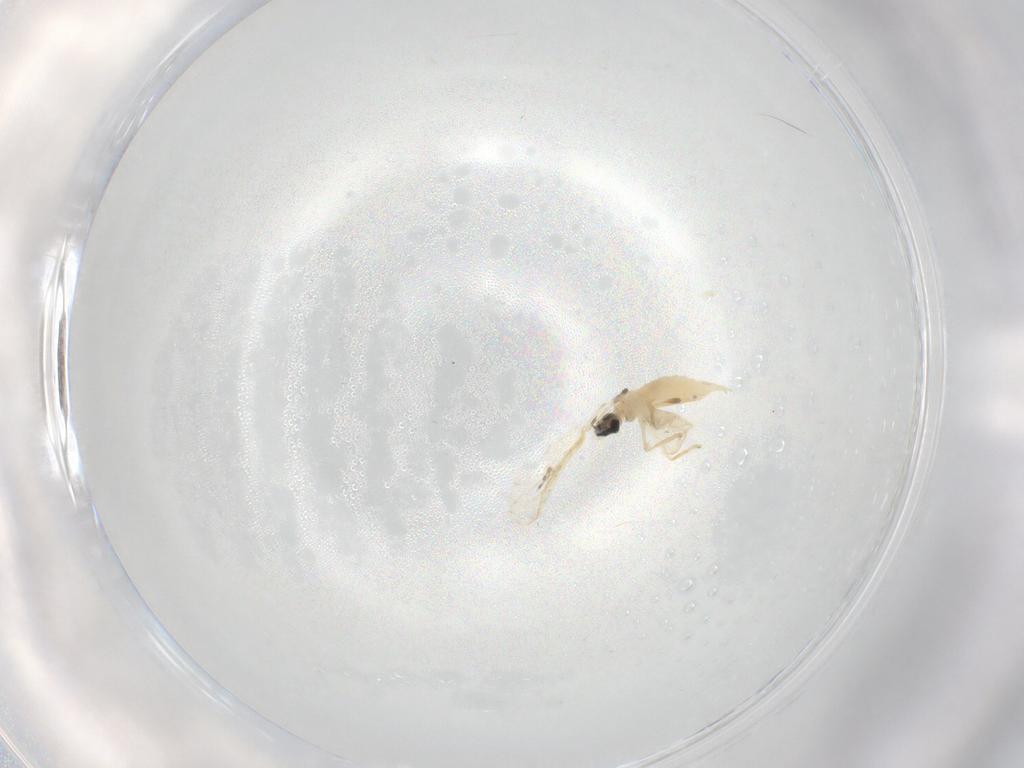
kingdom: Animalia
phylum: Arthropoda
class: Insecta
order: Diptera
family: Cecidomyiidae
